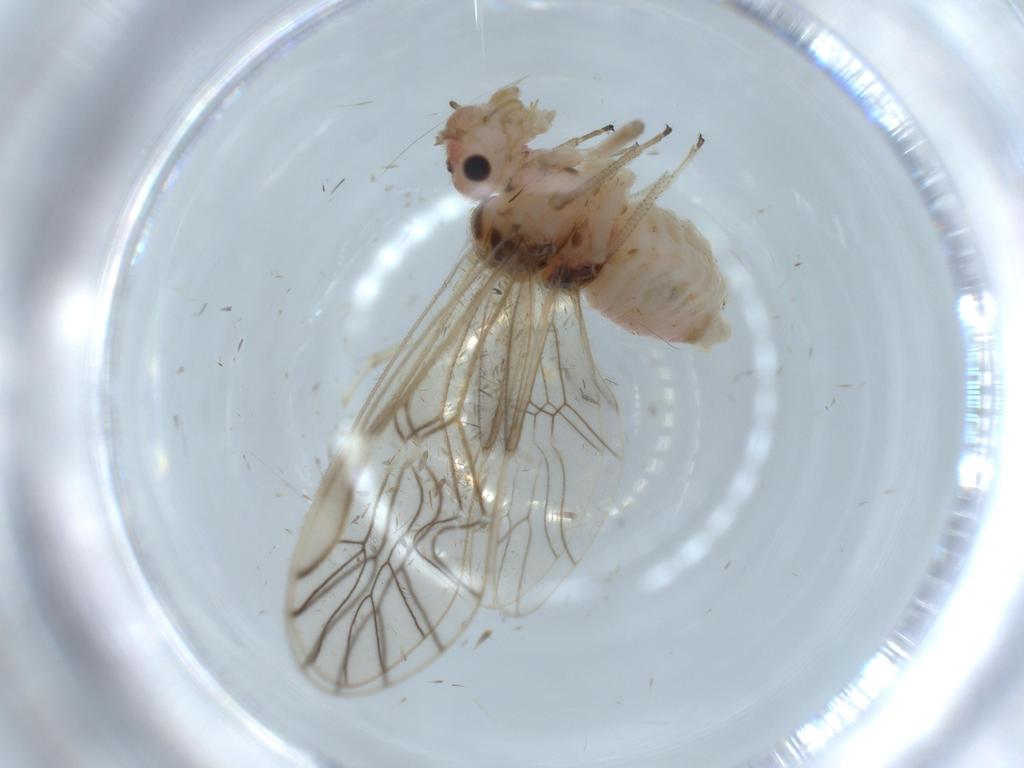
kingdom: Animalia
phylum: Arthropoda
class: Insecta
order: Psocodea
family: Amphipsocidae
